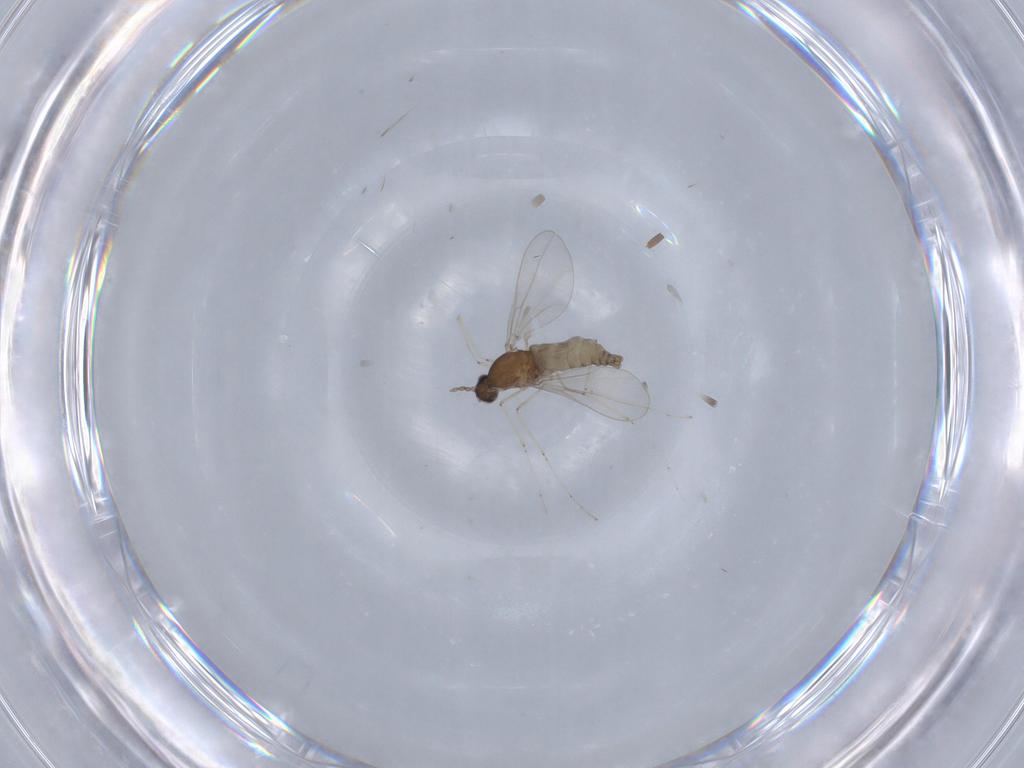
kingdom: Animalia
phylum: Arthropoda
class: Insecta
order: Diptera
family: Cecidomyiidae
